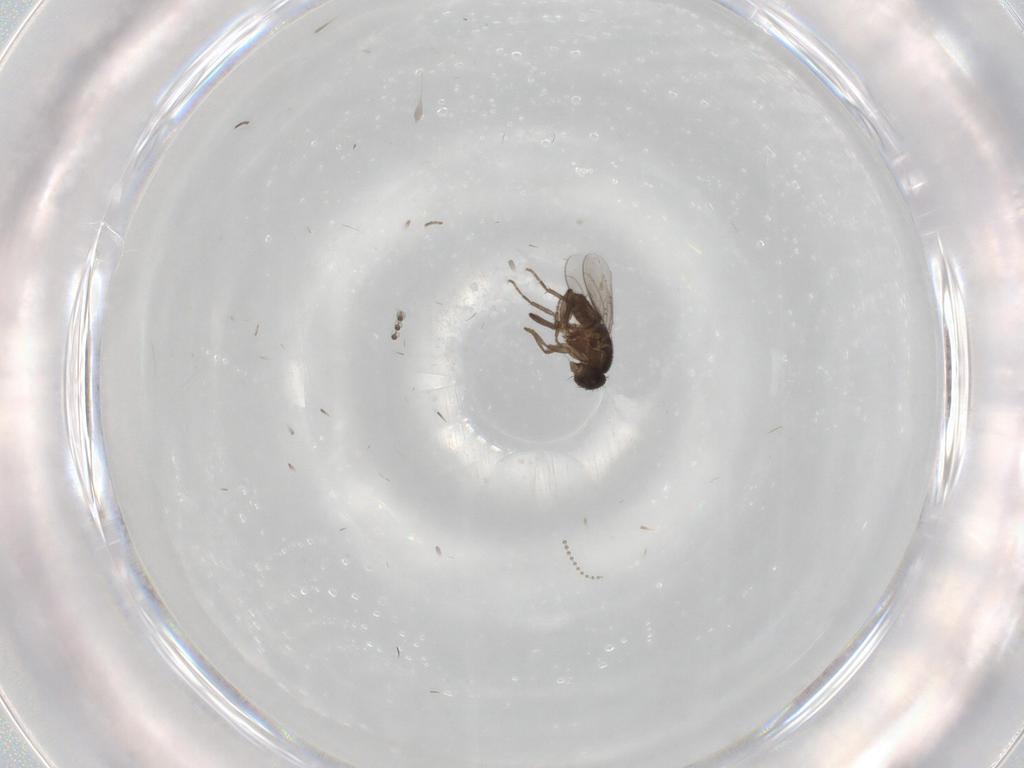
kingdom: Animalia
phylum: Arthropoda
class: Insecta
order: Diptera
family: Psychodidae
